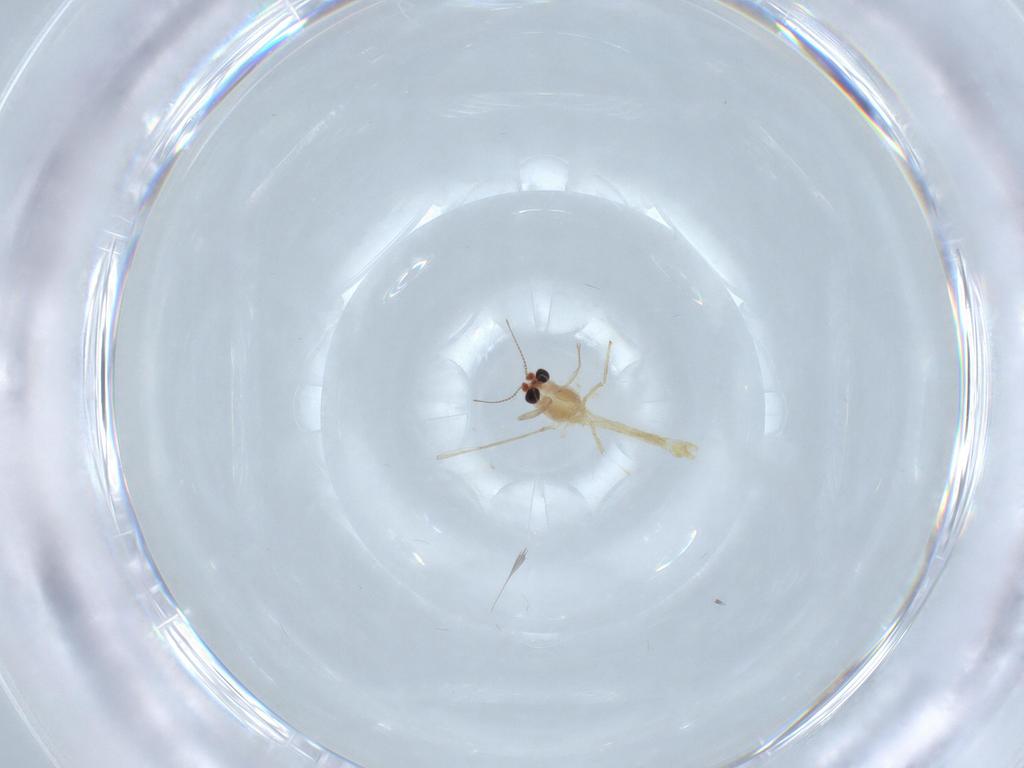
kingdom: Animalia
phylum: Arthropoda
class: Insecta
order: Diptera
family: Chironomidae
